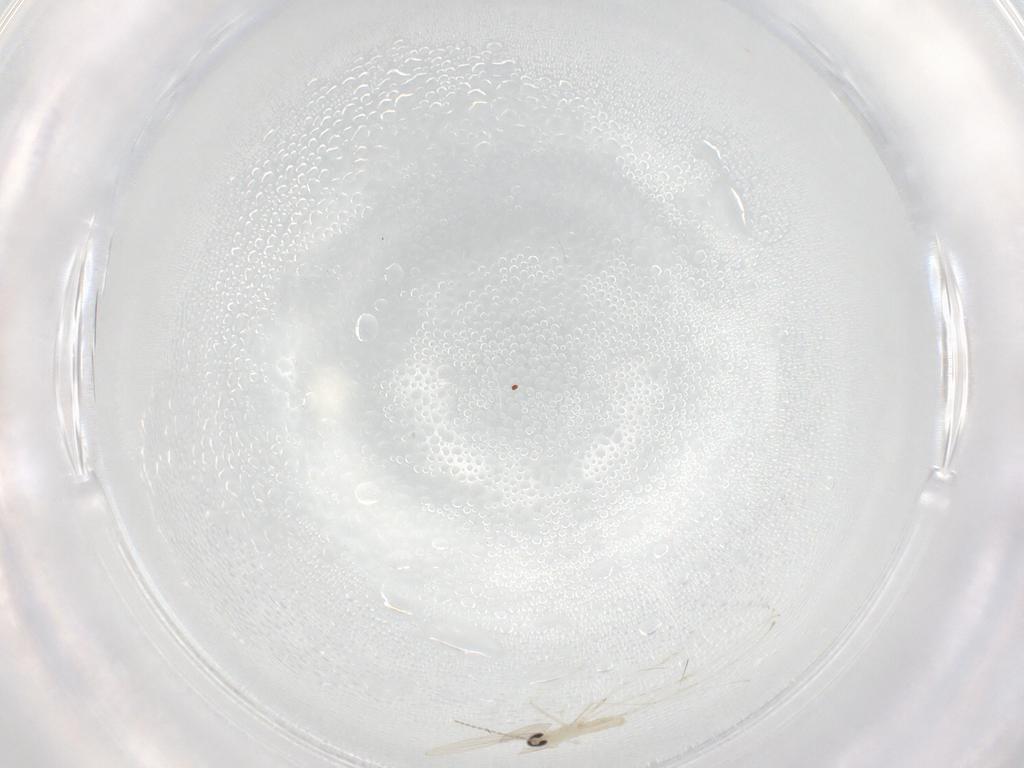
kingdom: Animalia
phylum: Arthropoda
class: Insecta
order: Diptera
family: Cecidomyiidae
